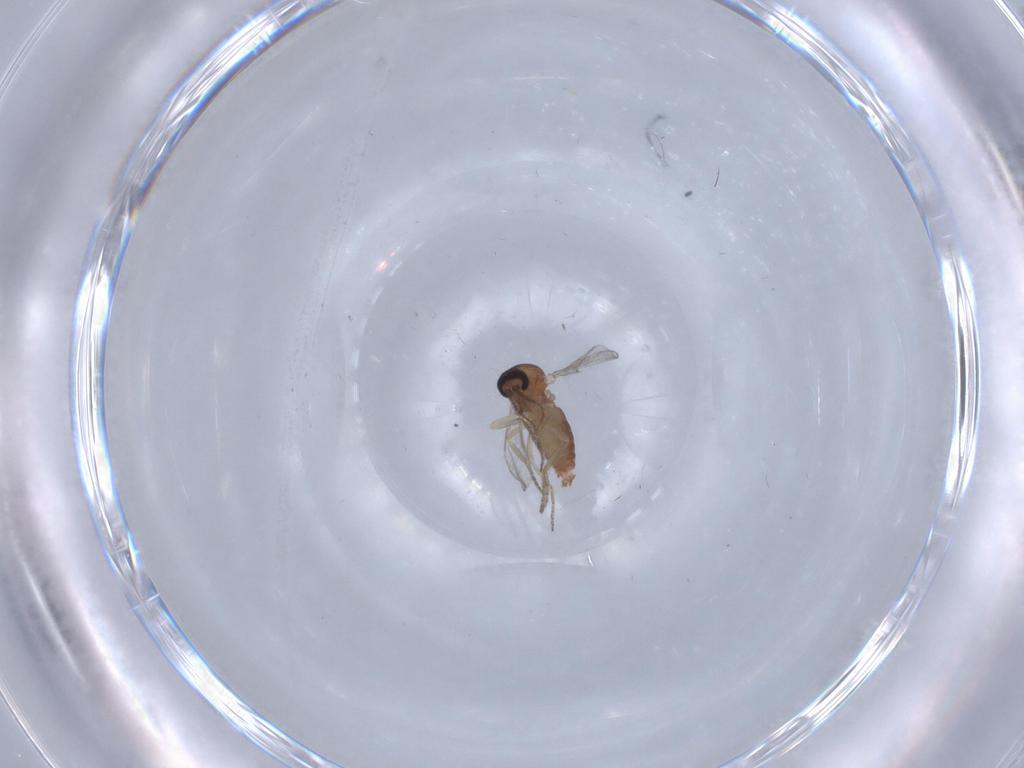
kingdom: Animalia
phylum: Arthropoda
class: Insecta
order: Diptera
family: Ceratopogonidae
